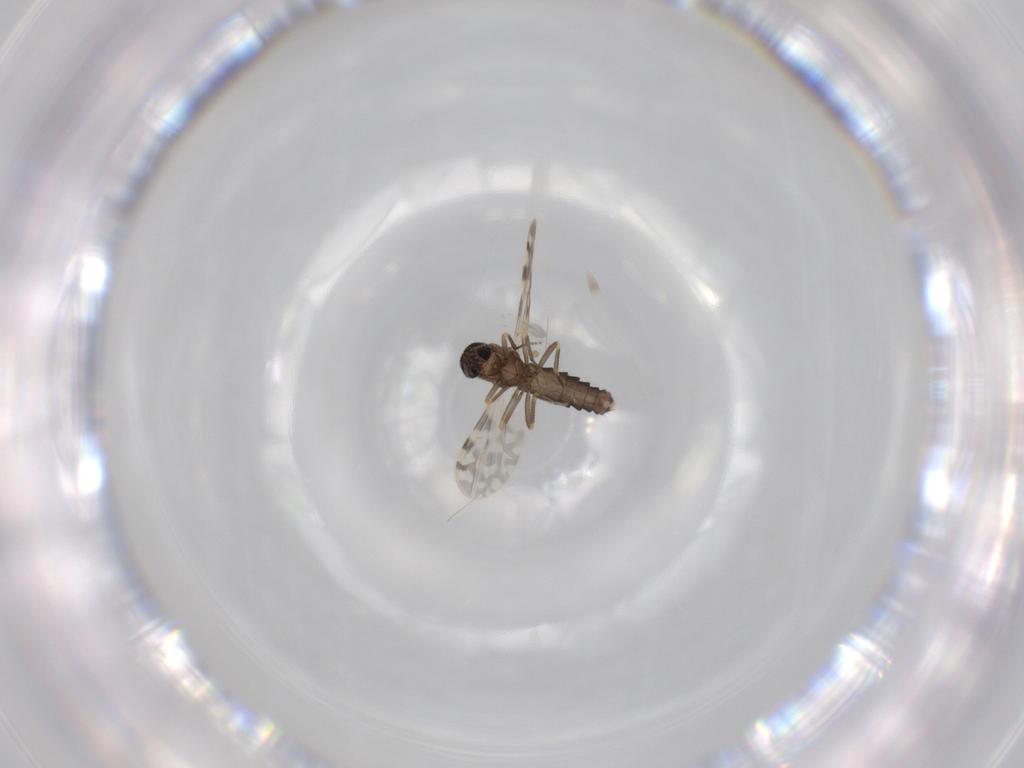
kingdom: Animalia
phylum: Arthropoda
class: Insecta
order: Diptera
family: Ceratopogonidae
